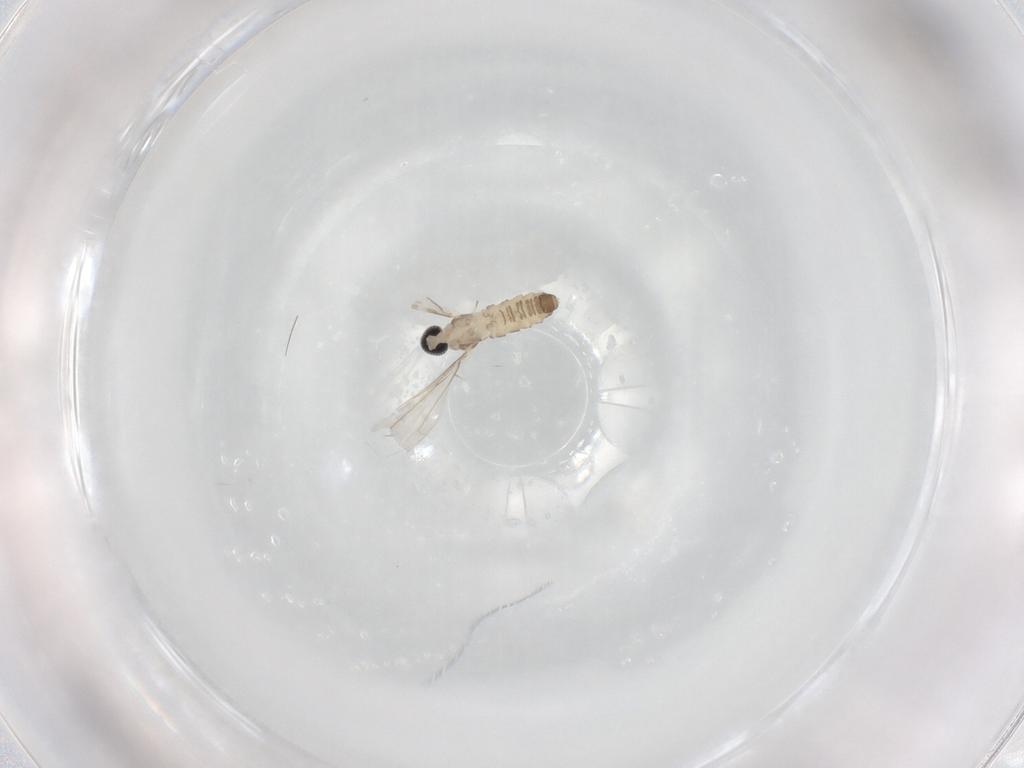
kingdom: Animalia
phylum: Arthropoda
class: Insecta
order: Diptera
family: Cecidomyiidae
